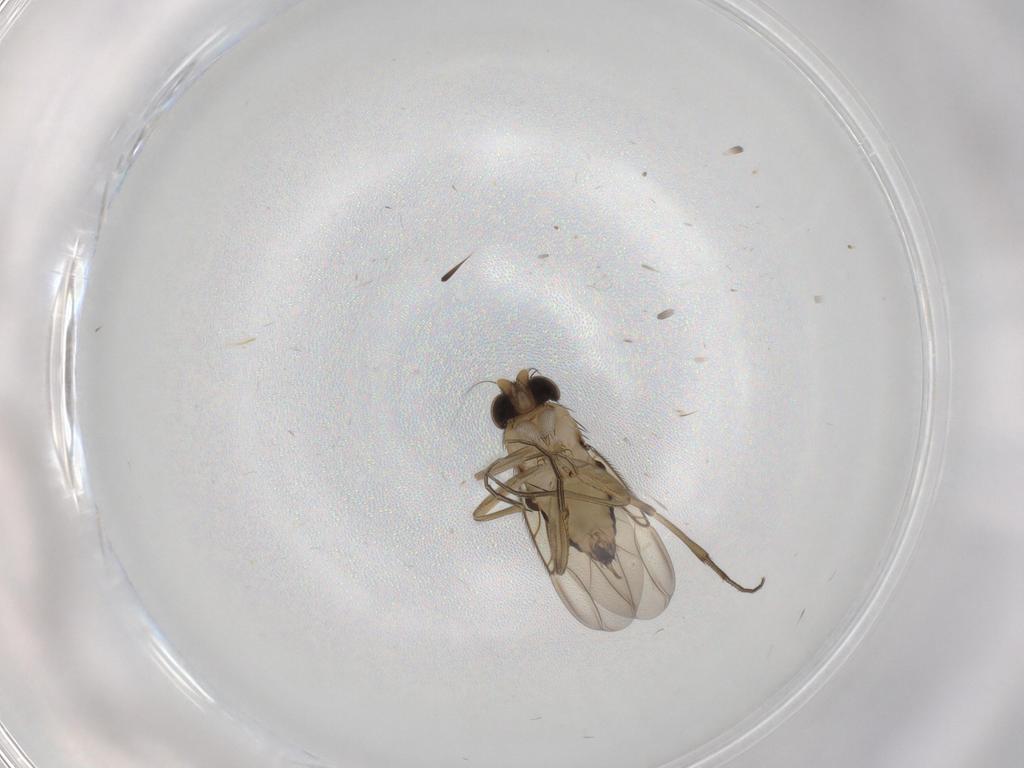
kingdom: Animalia
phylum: Arthropoda
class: Insecta
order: Diptera
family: Phoridae
